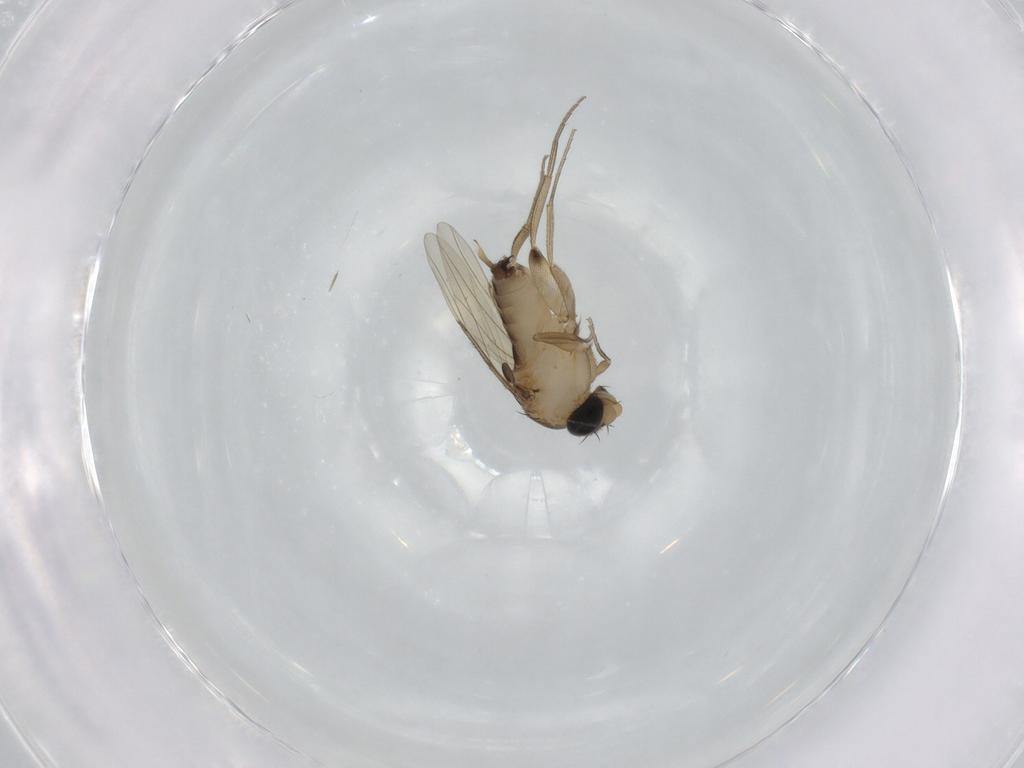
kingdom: Animalia
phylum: Arthropoda
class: Insecta
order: Diptera
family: Phoridae
